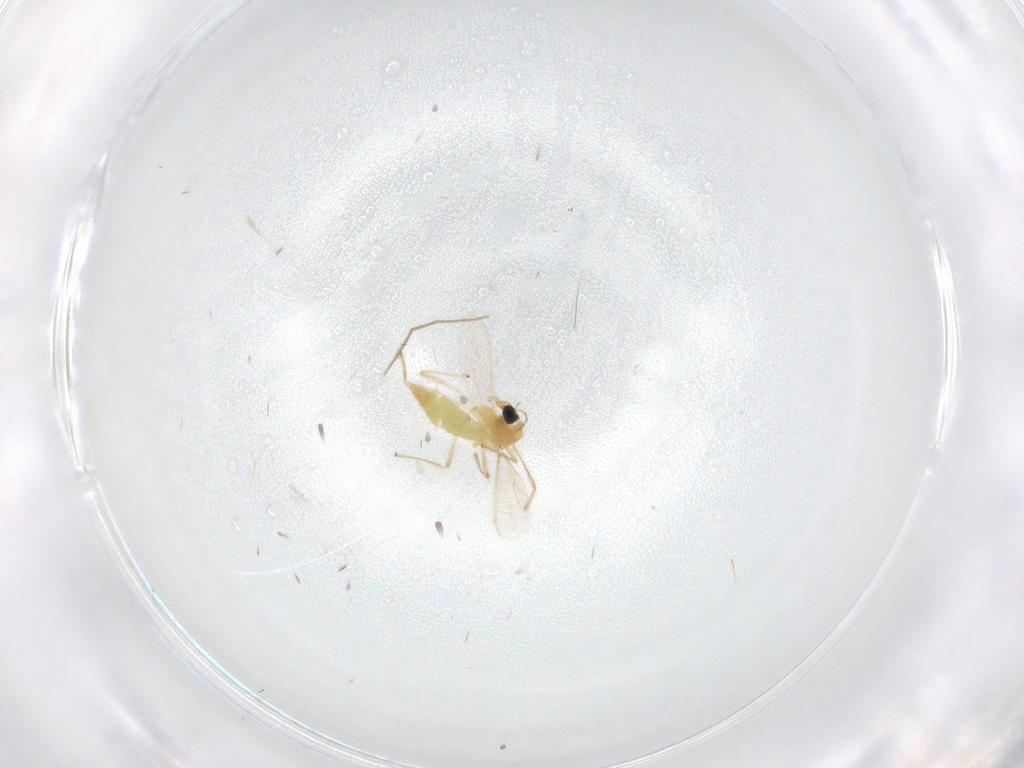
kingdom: Animalia
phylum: Arthropoda
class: Insecta
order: Diptera
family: Chironomidae
